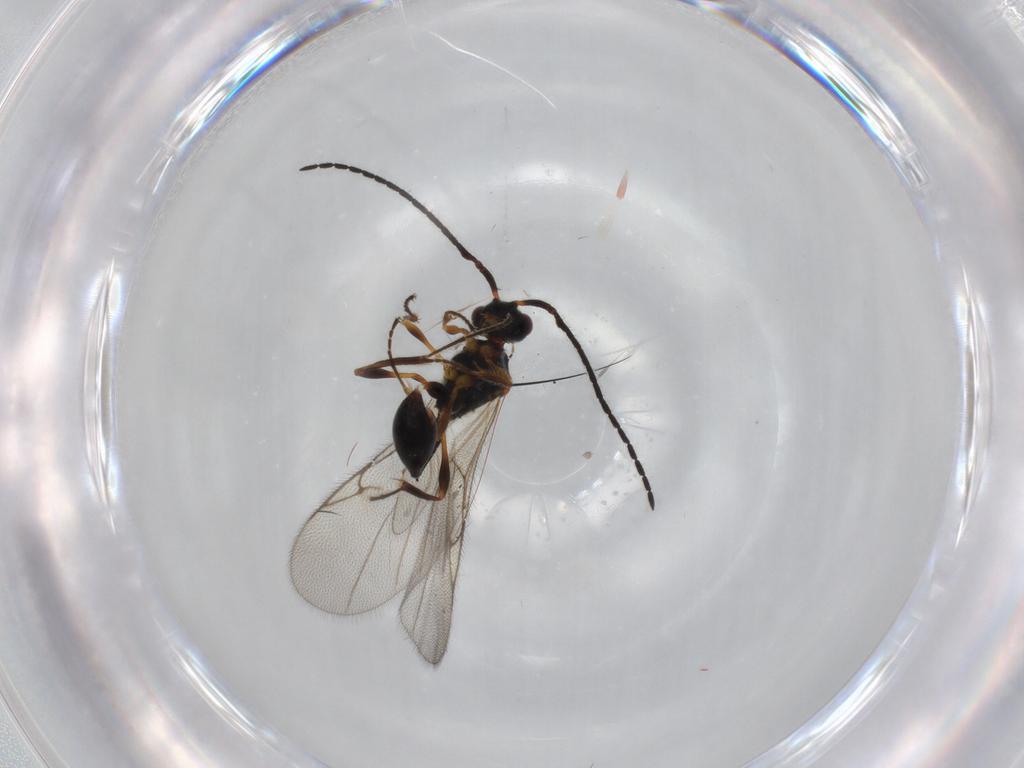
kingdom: Animalia
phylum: Arthropoda
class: Insecta
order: Hymenoptera
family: Diapriidae
